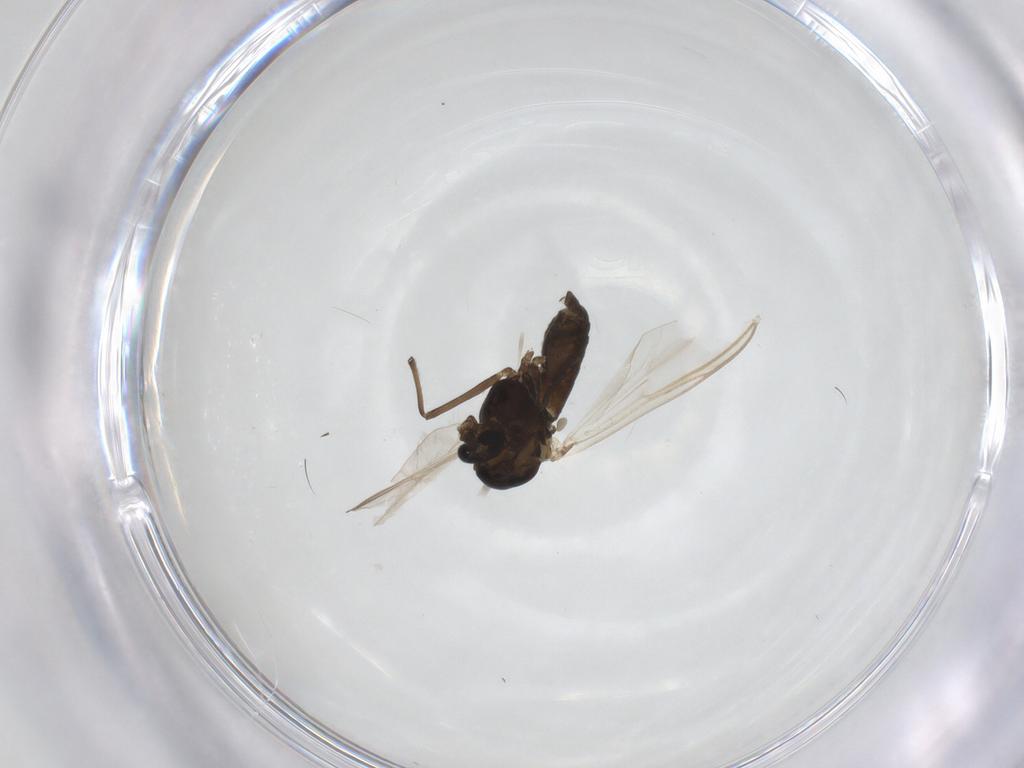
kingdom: Animalia
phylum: Arthropoda
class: Insecta
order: Diptera
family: Chironomidae
